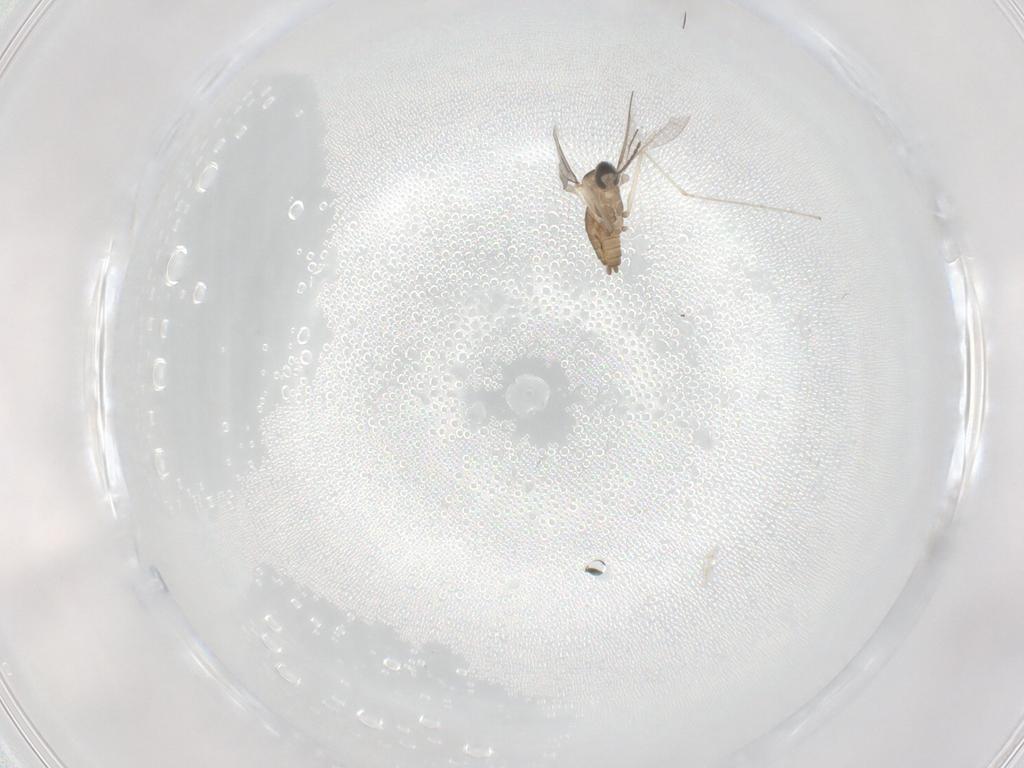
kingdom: Animalia
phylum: Arthropoda
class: Insecta
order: Diptera
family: Cecidomyiidae
